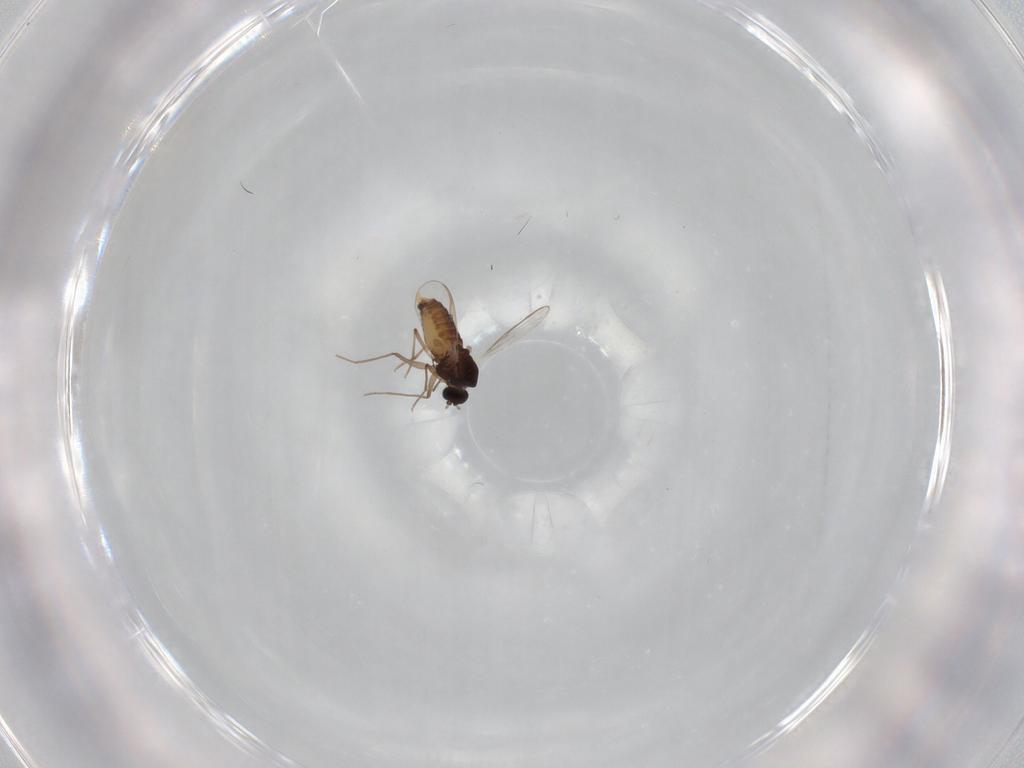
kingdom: Animalia
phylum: Arthropoda
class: Insecta
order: Diptera
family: Chironomidae
